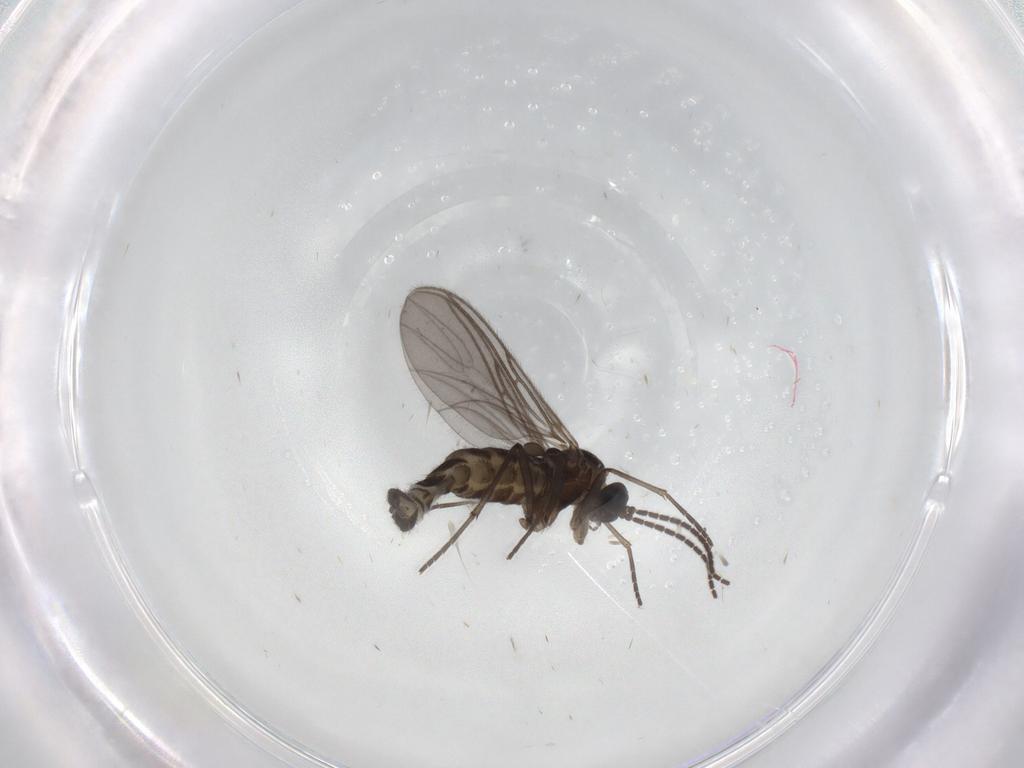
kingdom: Animalia
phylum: Arthropoda
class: Insecta
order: Diptera
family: Sciaridae
